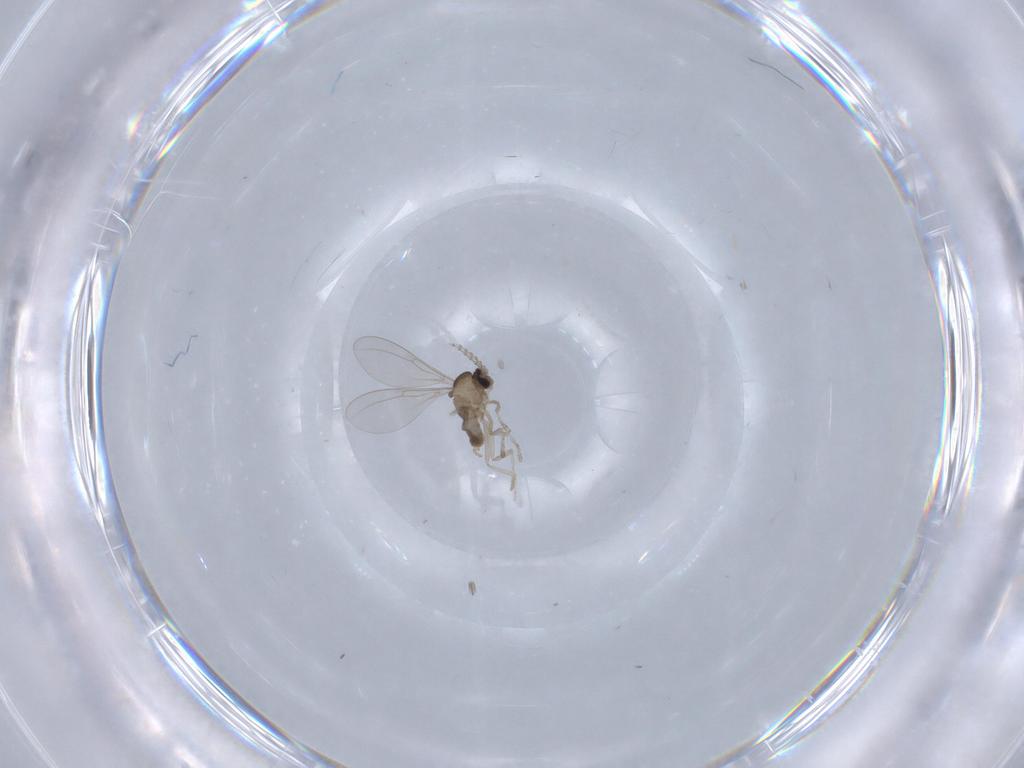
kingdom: Animalia
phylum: Arthropoda
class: Insecta
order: Diptera
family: Cecidomyiidae
